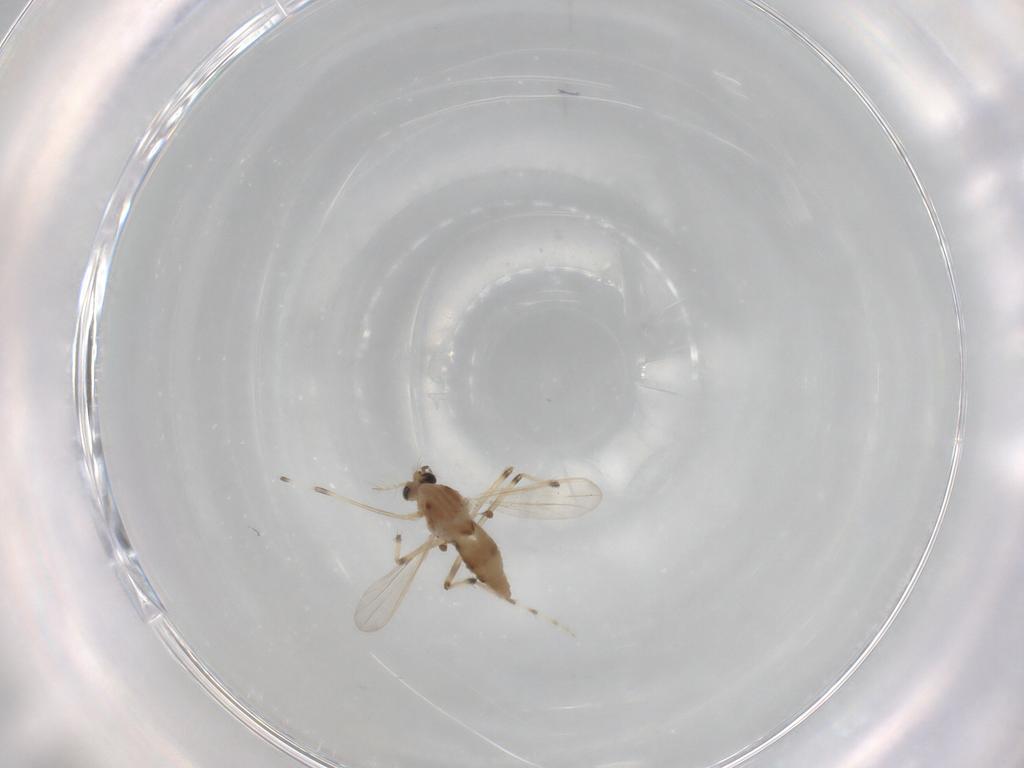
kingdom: Animalia
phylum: Arthropoda
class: Insecta
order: Diptera
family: Chironomidae
